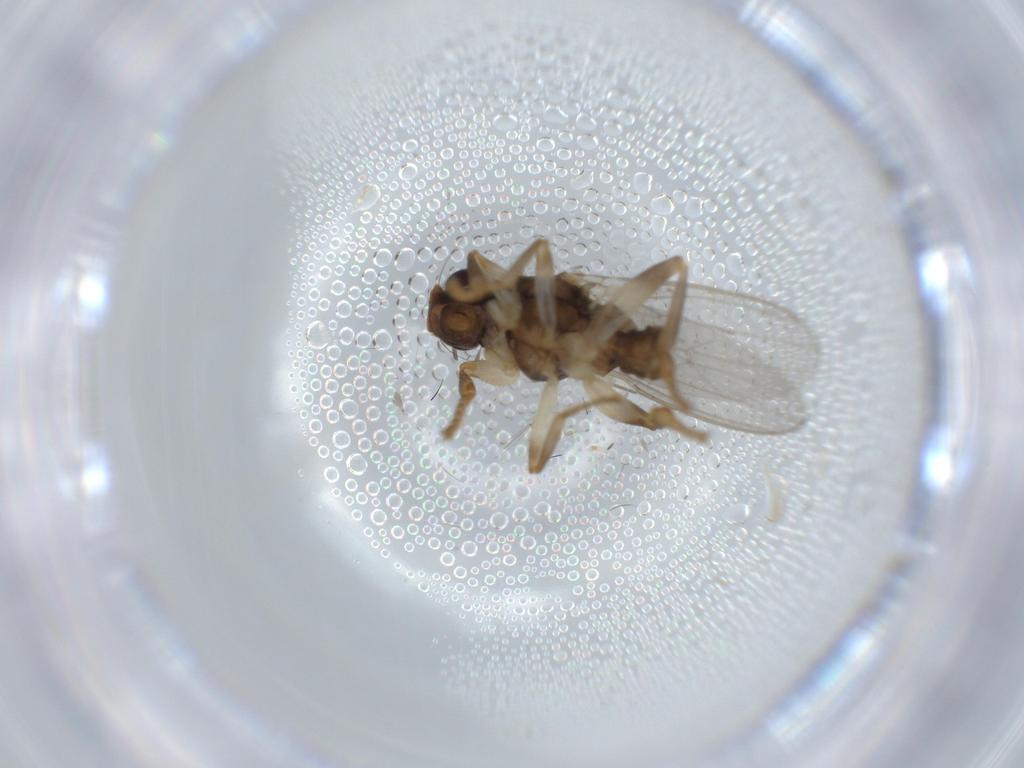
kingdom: Animalia
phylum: Arthropoda
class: Insecta
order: Diptera
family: Sphaeroceridae
